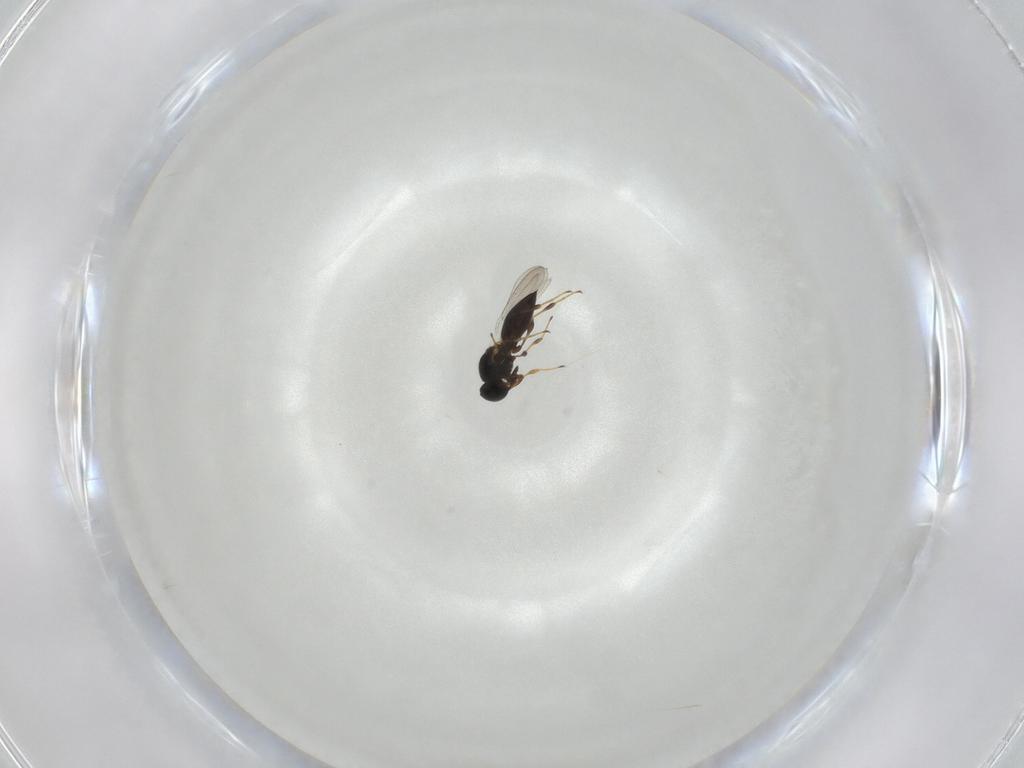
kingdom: Animalia
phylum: Arthropoda
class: Insecta
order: Hymenoptera
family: Platygastridae
